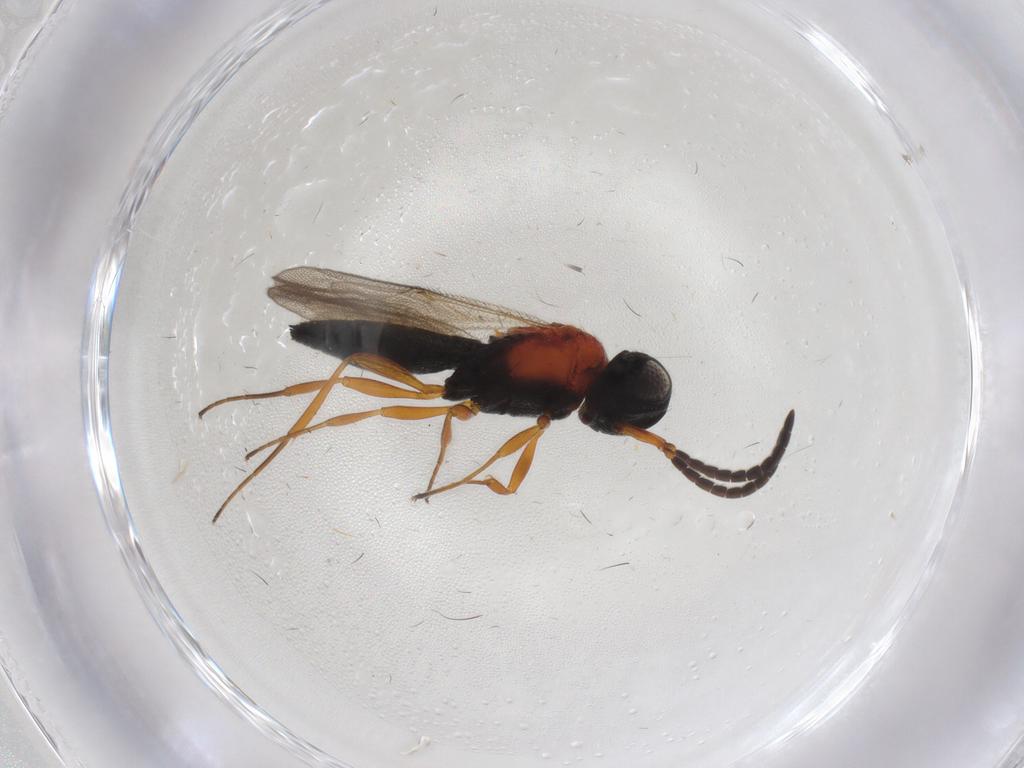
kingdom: Animalia
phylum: Arthropoda
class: Insecta
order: Hymenoptera
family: Scelionidae
